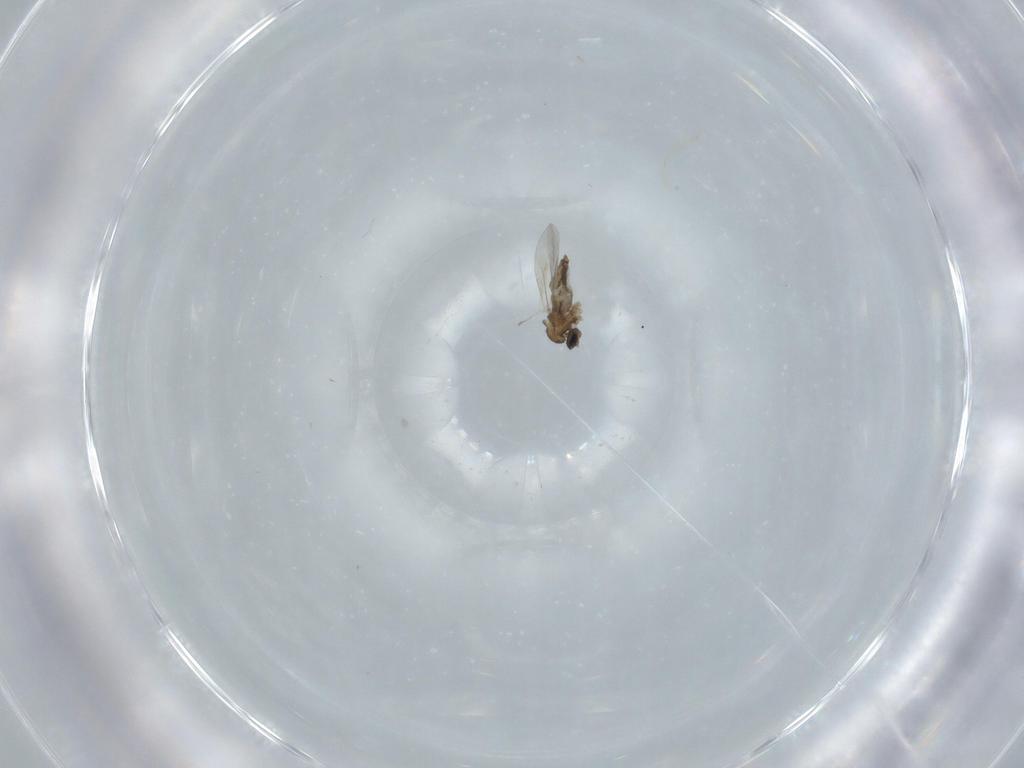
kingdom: Animalia
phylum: Arthropoda
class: Insecta
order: Diptera
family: Cecidomyiidae
